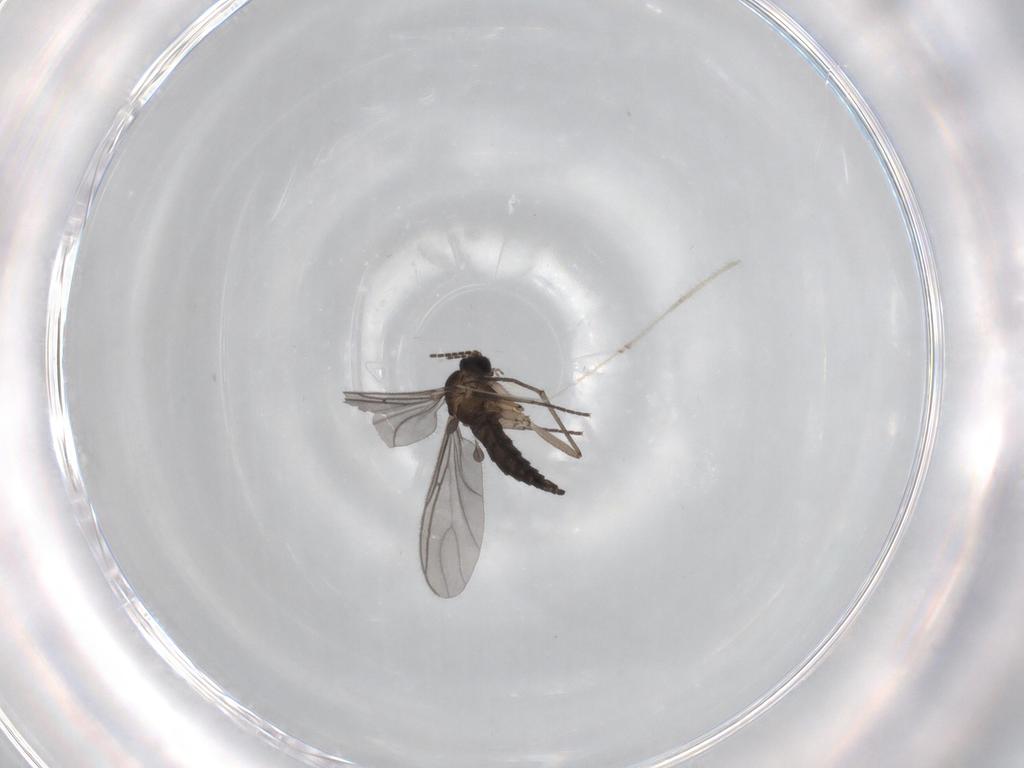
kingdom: Animalia
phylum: Arthropoda
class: Insecta
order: Diptera
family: Sciaridae
